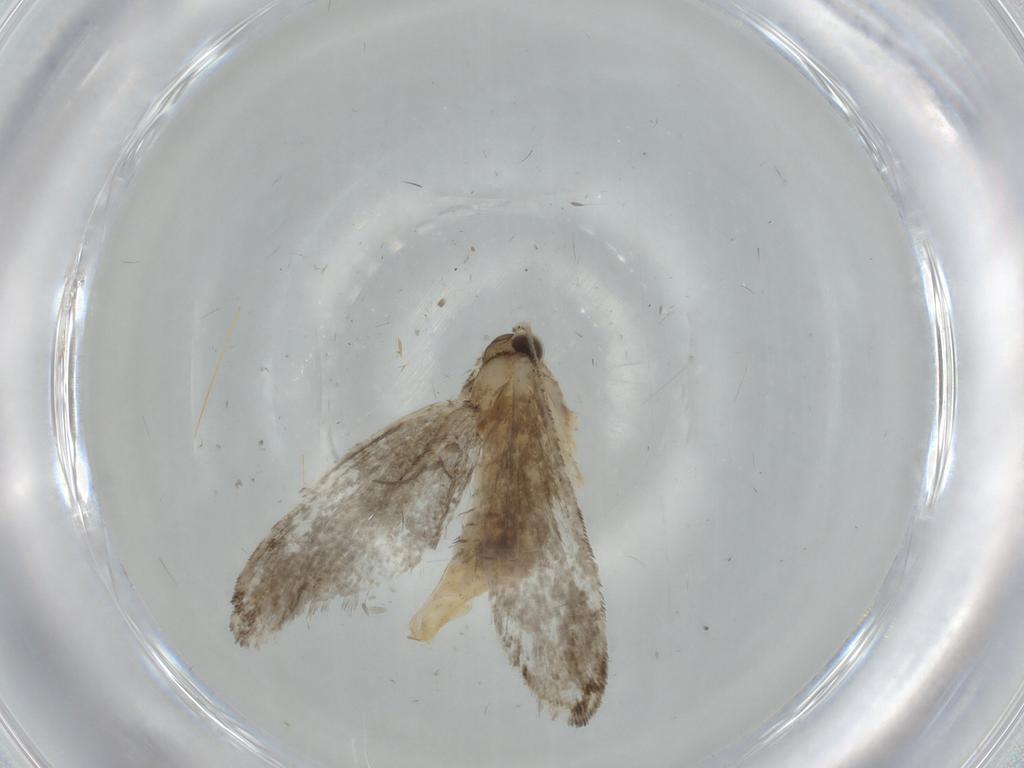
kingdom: Animalia
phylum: Arthropoda
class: Insecta
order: Lepidoptera
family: Tineidae
